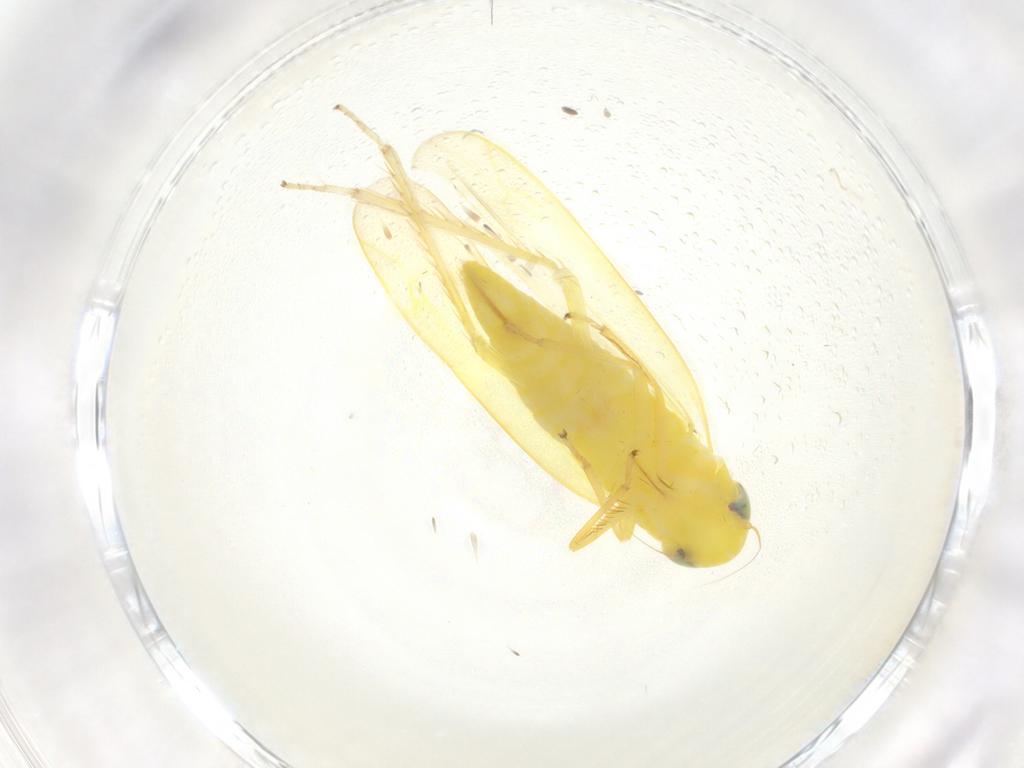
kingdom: Animalia
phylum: Arthropoda
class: Insecta
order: Hemiptera
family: Cicadellidae
